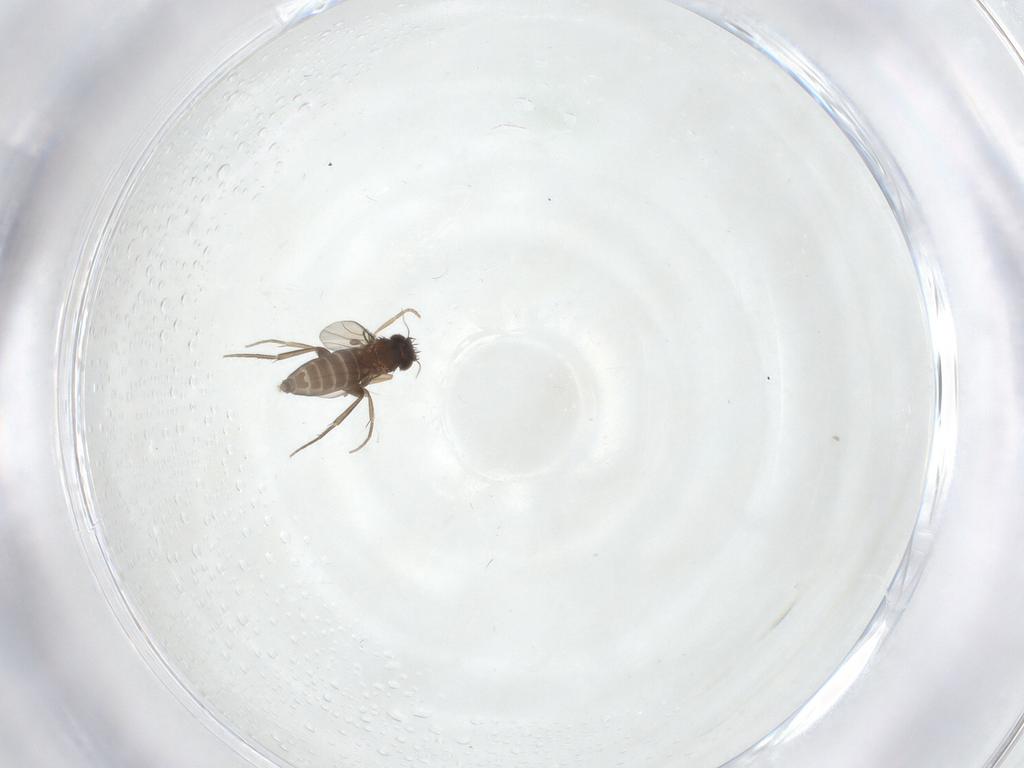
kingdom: Animalia
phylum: Arthropoda
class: Insecta
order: Diptera
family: Phoridae
